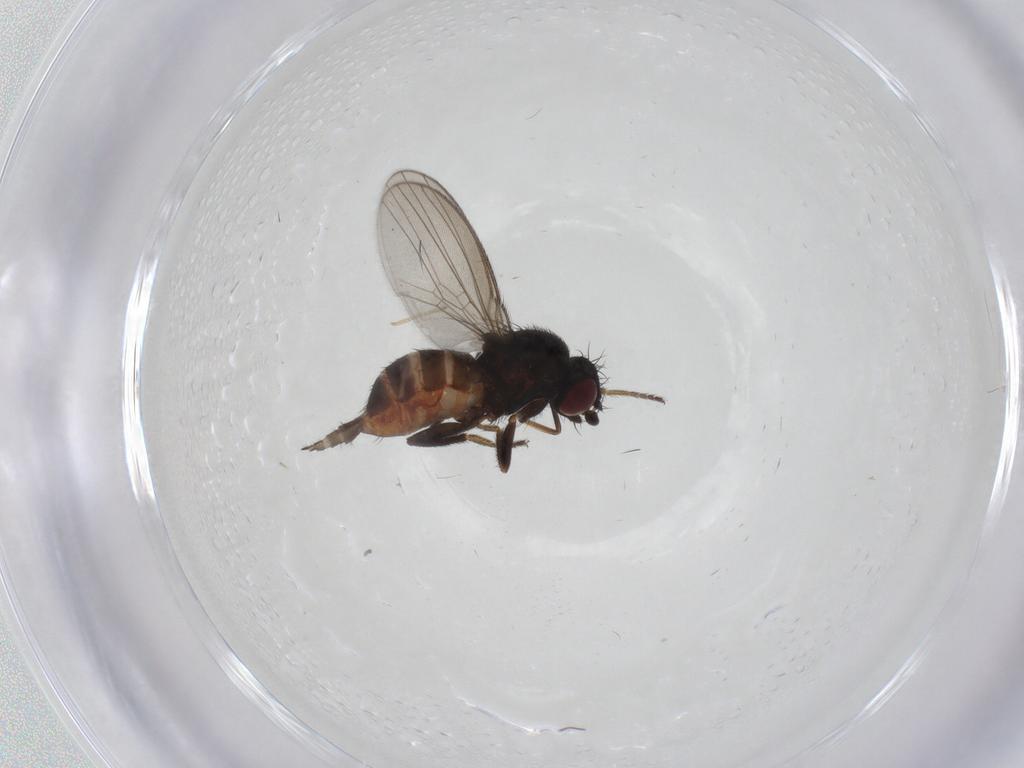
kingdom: Animalia
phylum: Arthropoda
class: Insecta
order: Diptera
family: Milichiidae
